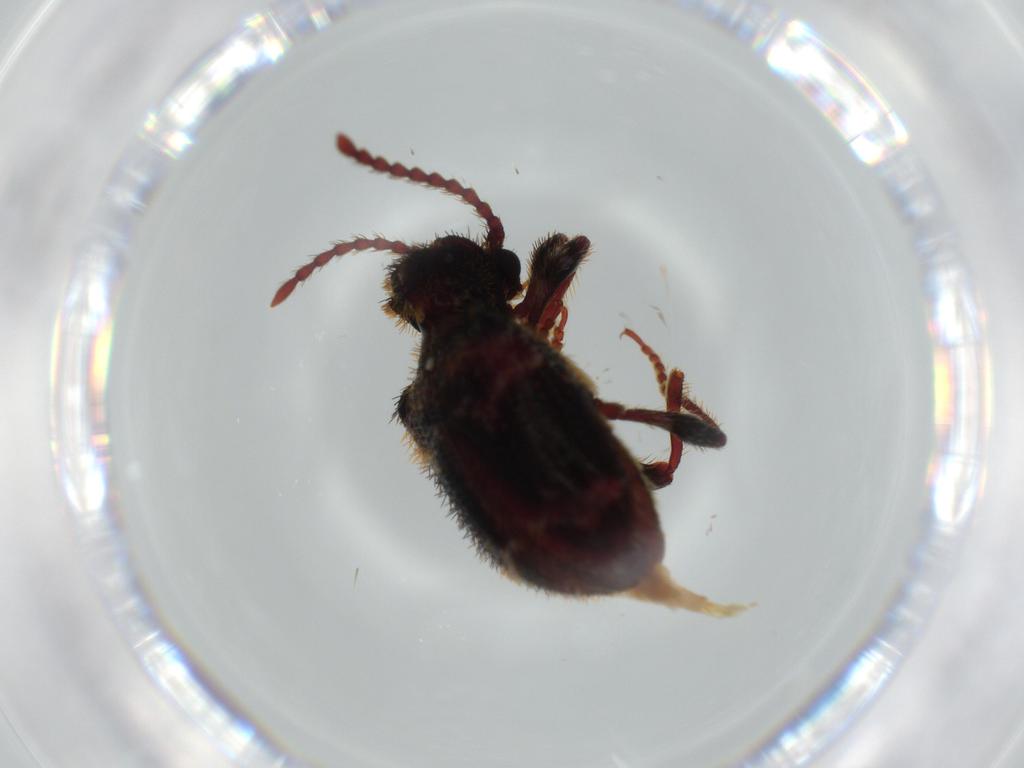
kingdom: Animalia
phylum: Arthropoda
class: Insecta
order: Coleoptera
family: Chrysomelidae
